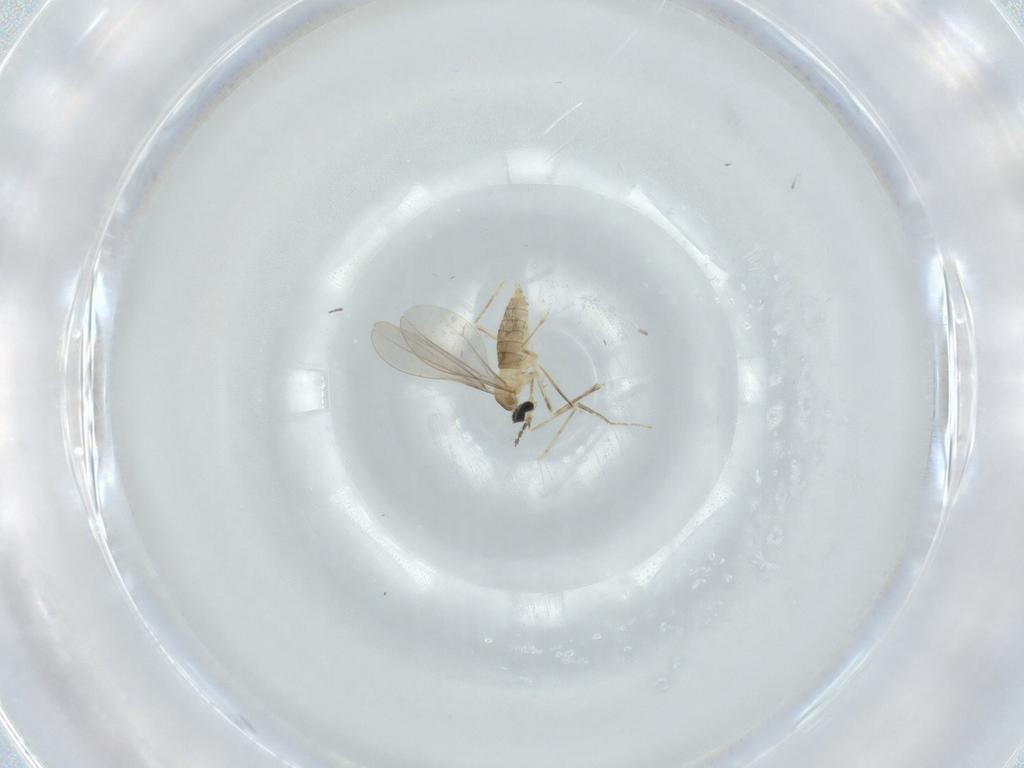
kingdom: Animalia
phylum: Arthropoda
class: Insecta
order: Diptera
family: Cecidomyiidae
